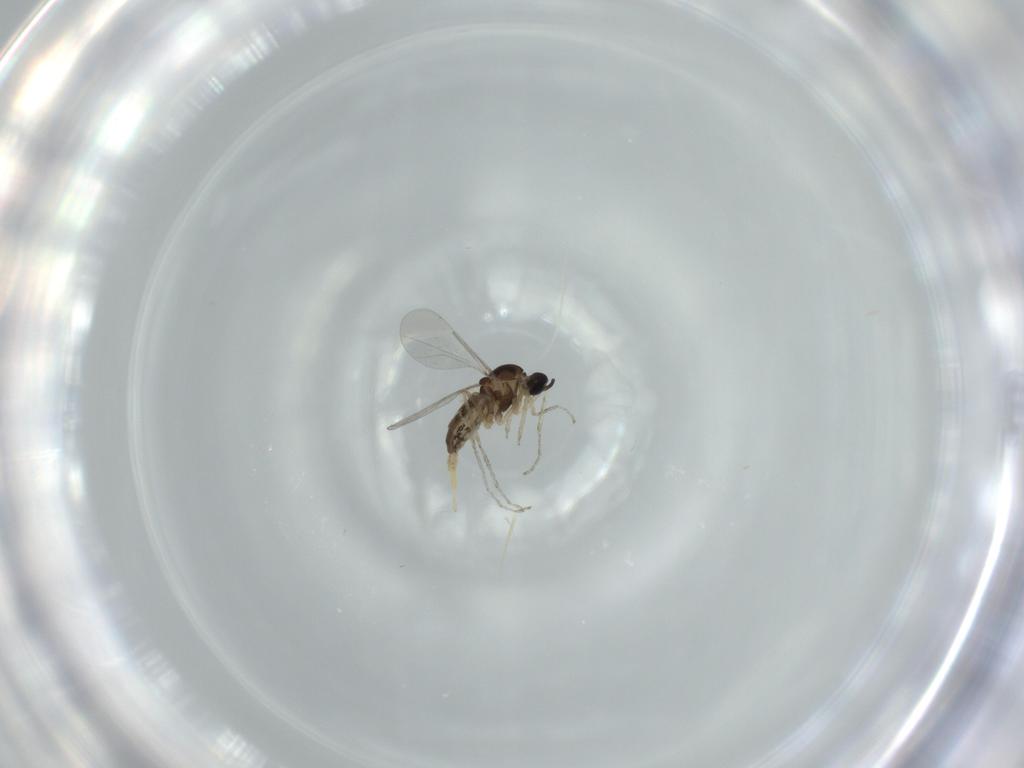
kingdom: Animalia
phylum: Arthropoda
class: Insecta
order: Diptera
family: Cecidomyiidae
